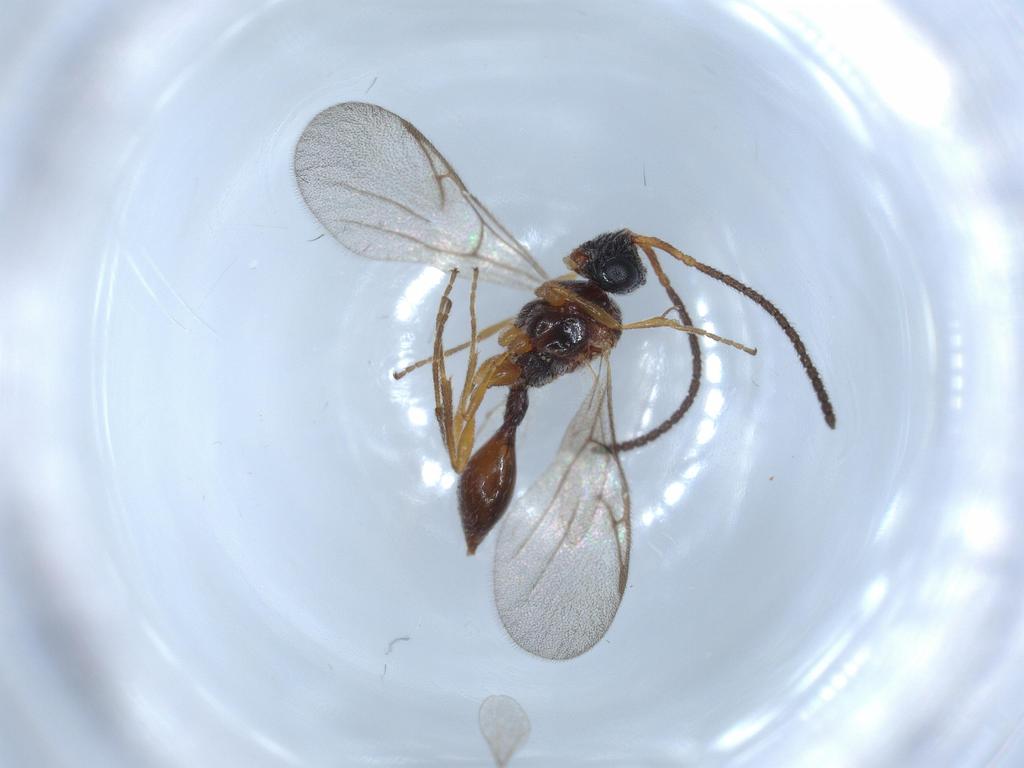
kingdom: Animalia
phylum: Arthropoda
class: Insecta
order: Hymenoptera
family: Diapriidae
